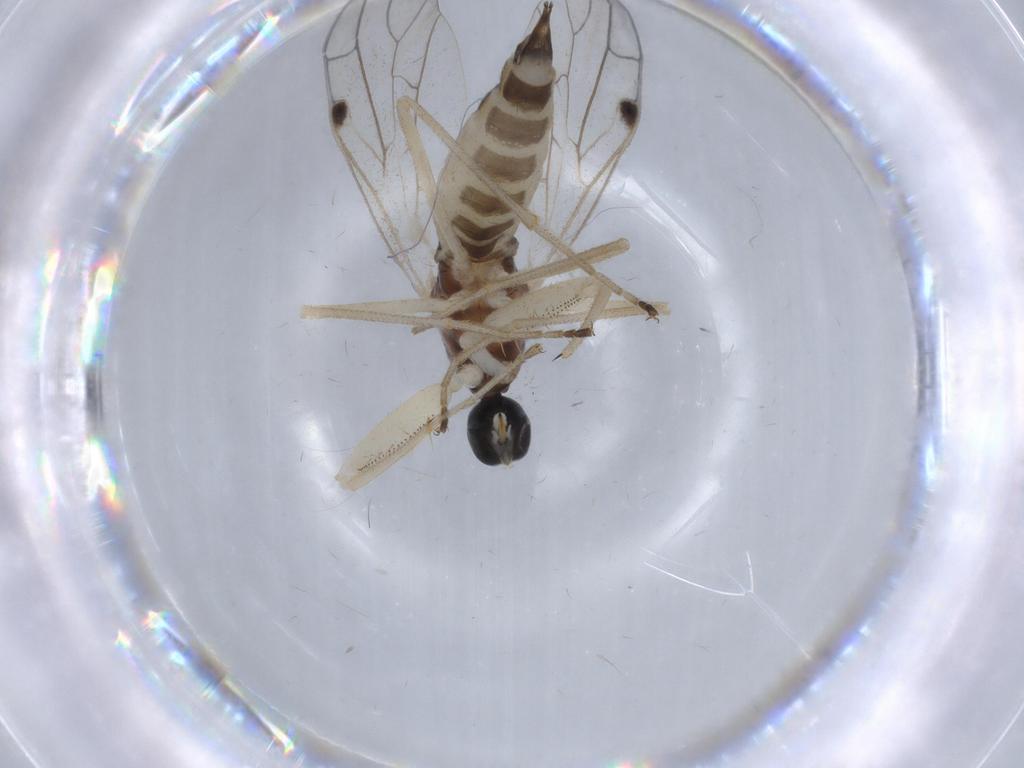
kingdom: Animalia
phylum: Arthropoda
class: Insecta
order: Diptera
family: Empididae
